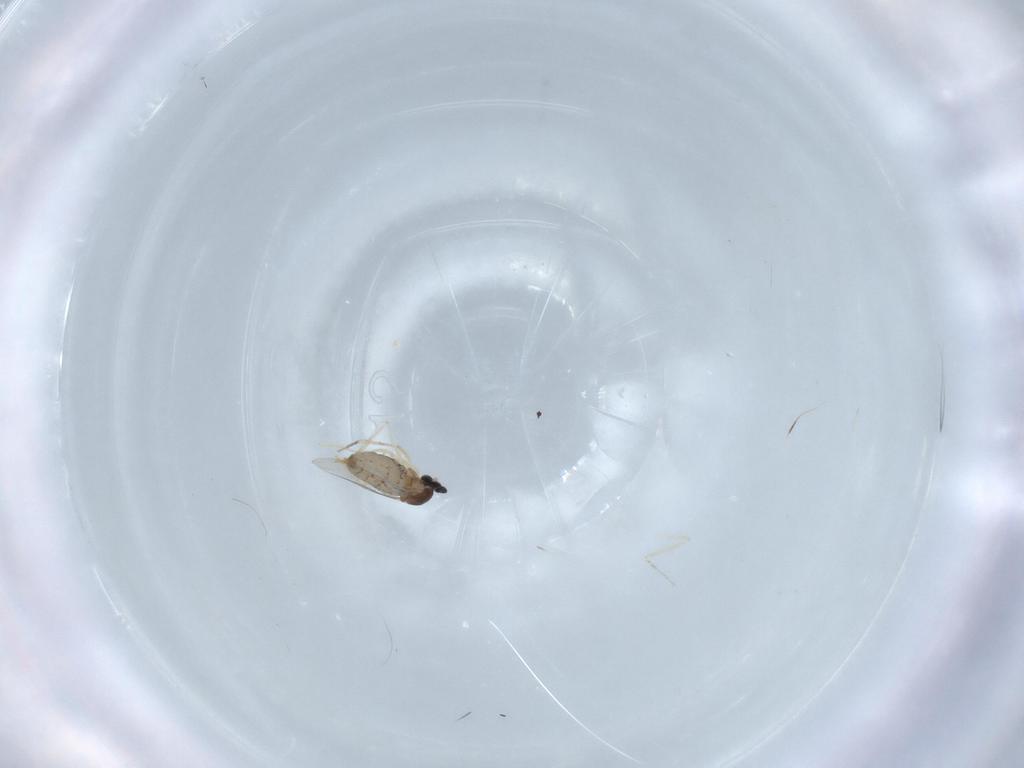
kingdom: Animalia
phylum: Arthropoda
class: Insecta
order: Diptera
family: Cecidomyiidae
